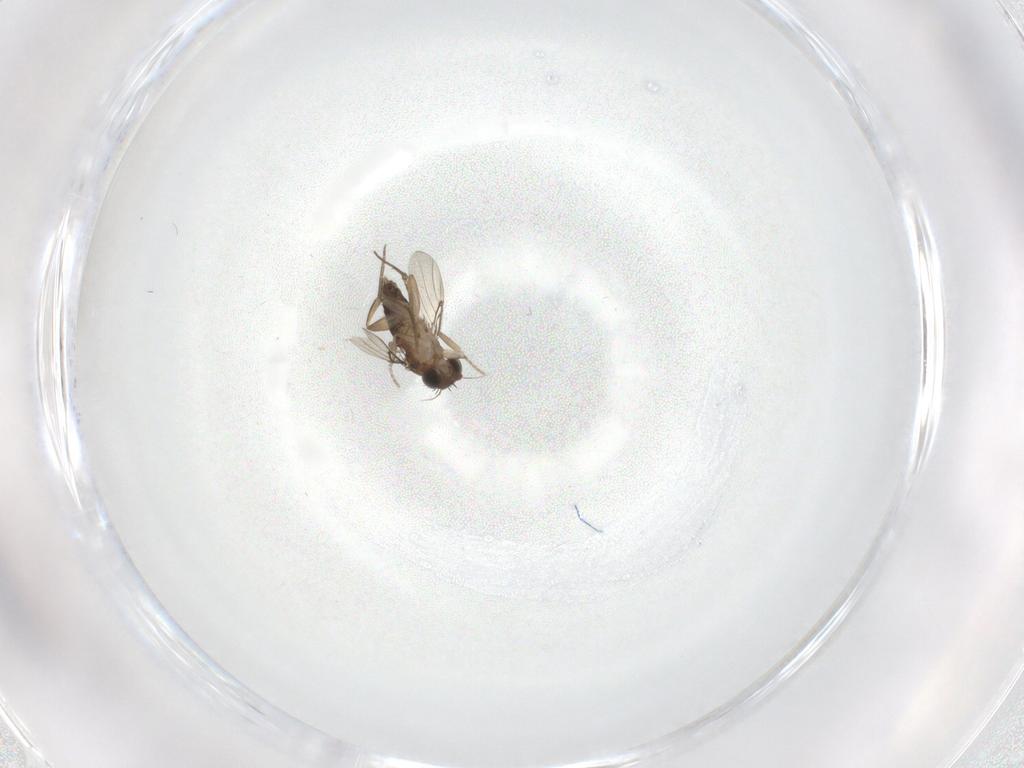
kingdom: Animalia
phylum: Arthropoda
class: Insecta
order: Diptera
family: Phoridae
